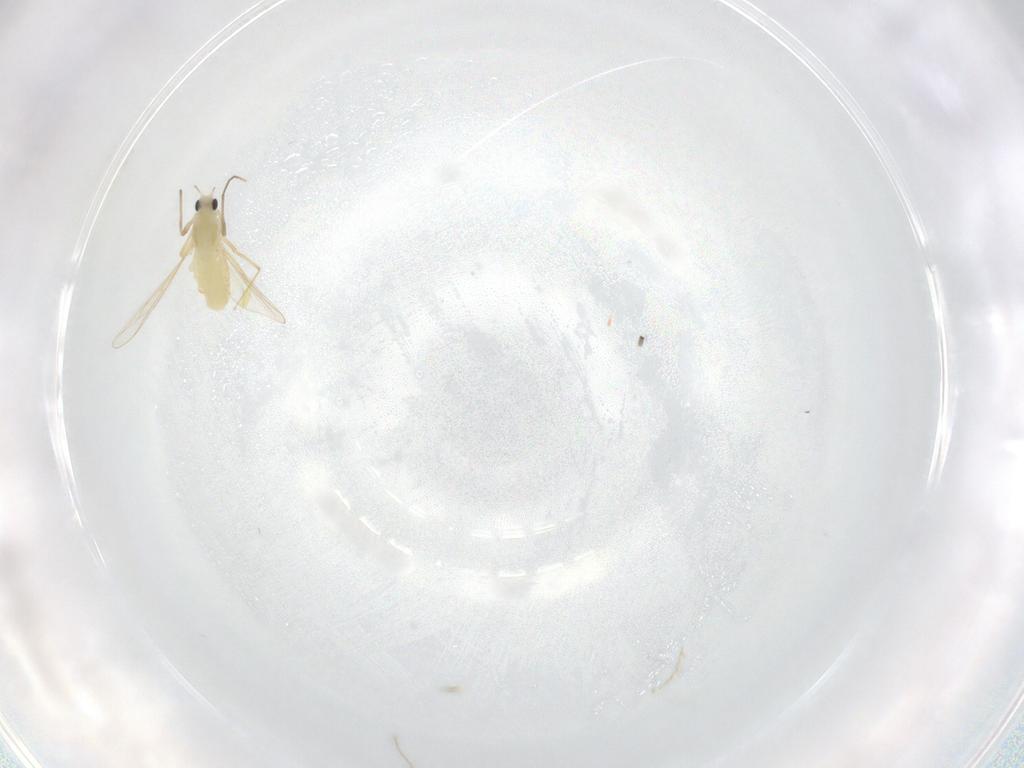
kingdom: Animalia
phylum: Arthropoda
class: Insecta
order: Diptera
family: Chironomidae
